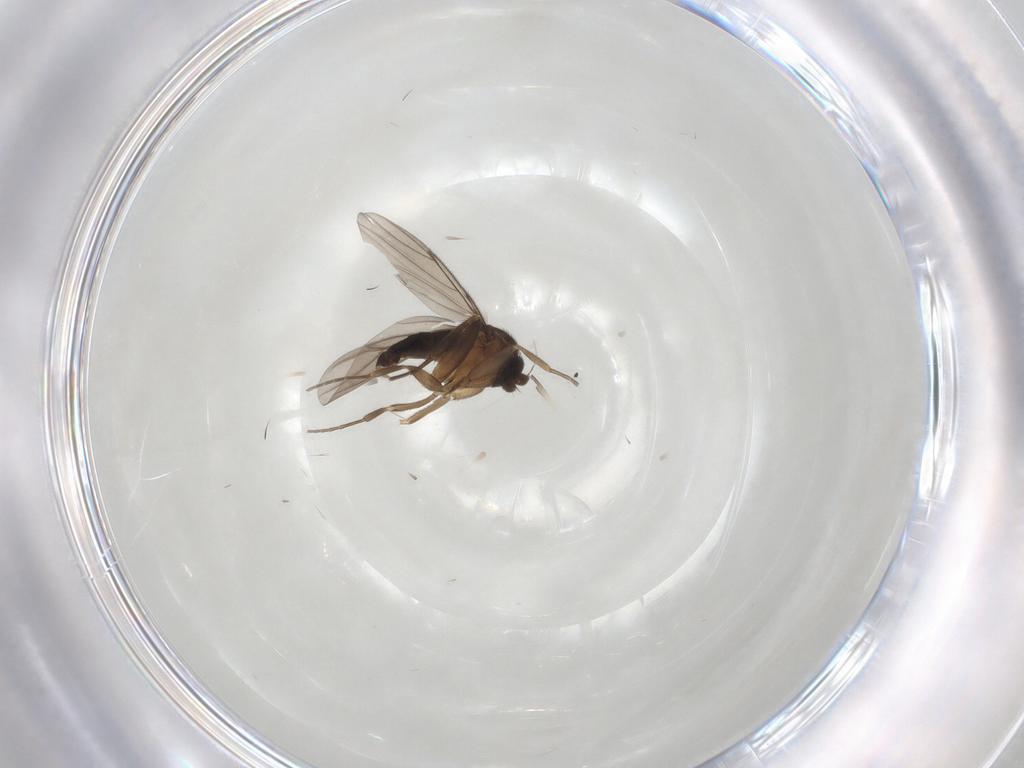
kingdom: Animalia
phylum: Arthropoda
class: Insecta
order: Diptera
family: Phoridae
